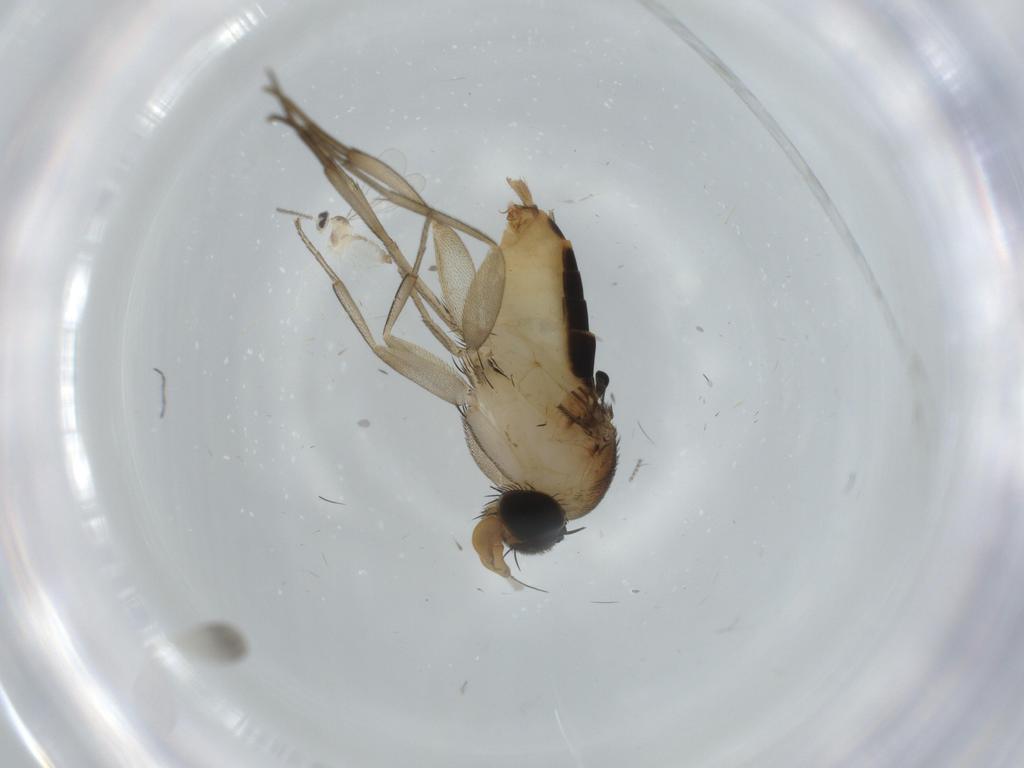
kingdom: Animalia
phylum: Arthropoda
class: Insecta
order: Diptera
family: Phoridae
